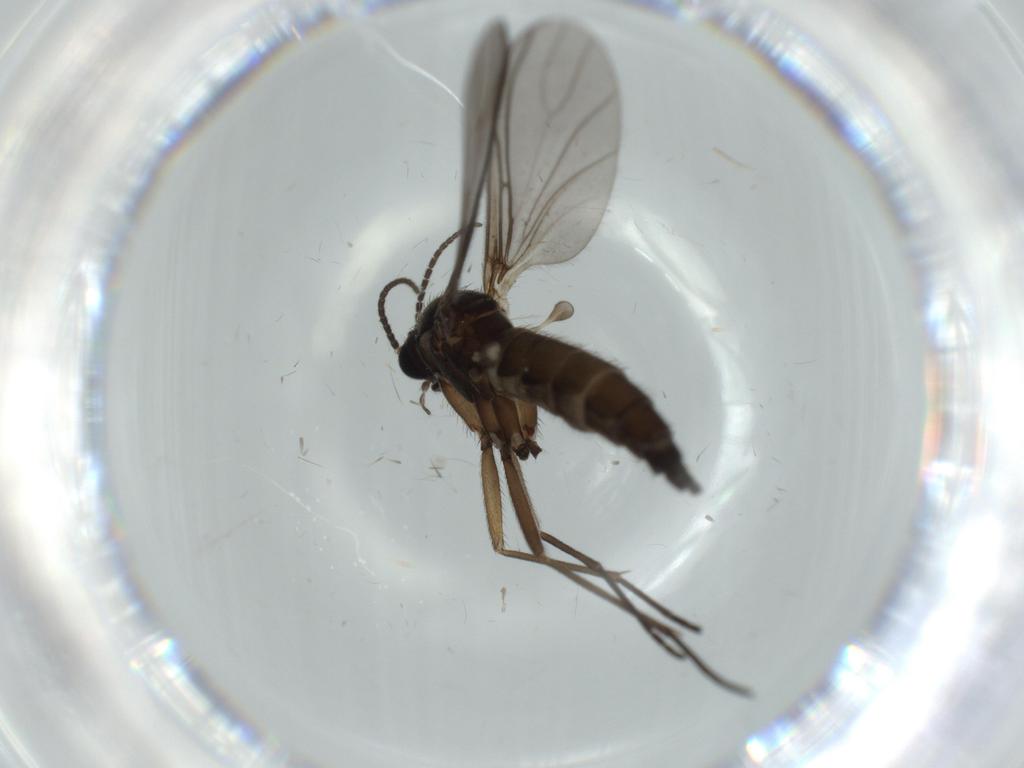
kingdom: Animalia
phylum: Arthropoda
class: Insecta
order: Diptera
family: Sciaridae
